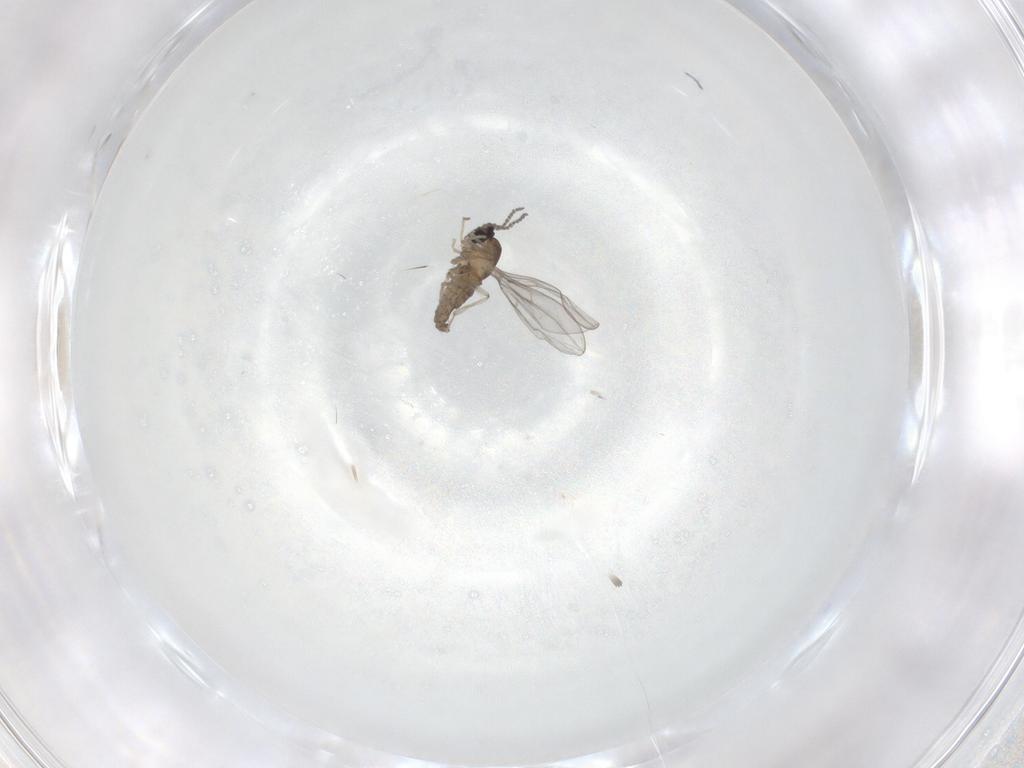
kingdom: Animalia
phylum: Arthropoda
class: Insecta
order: Diptera
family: Cecidomyiidae
